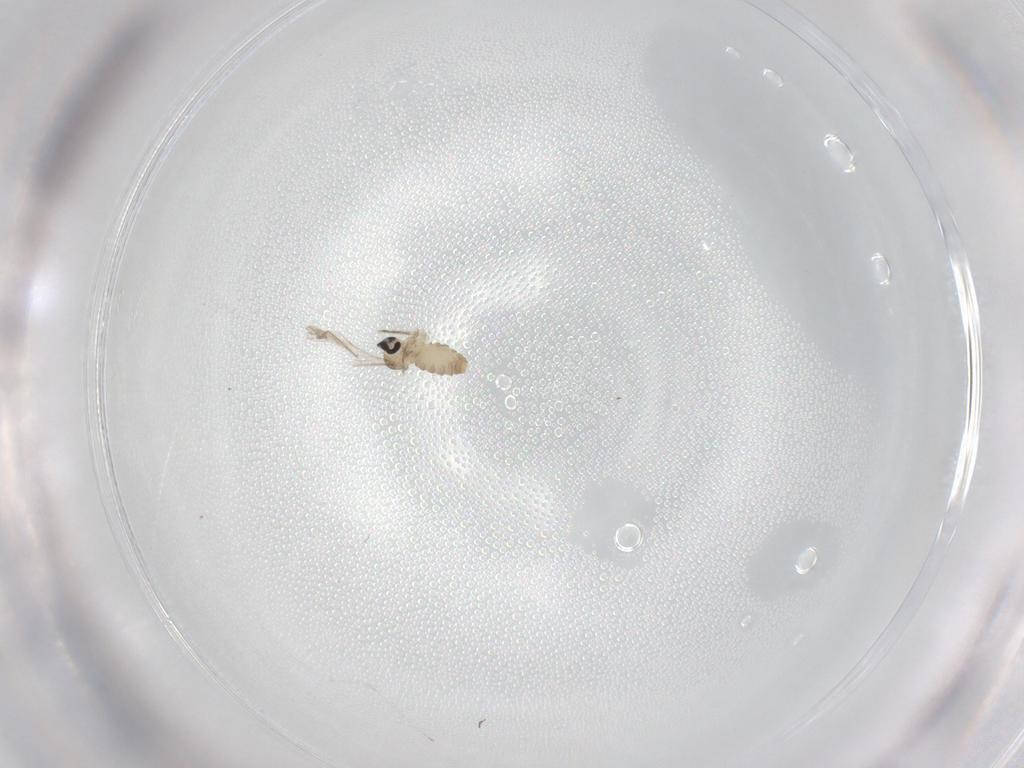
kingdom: Animalia
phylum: Arthropoda
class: Insecta
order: Diptera
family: Cecidomyiidae
